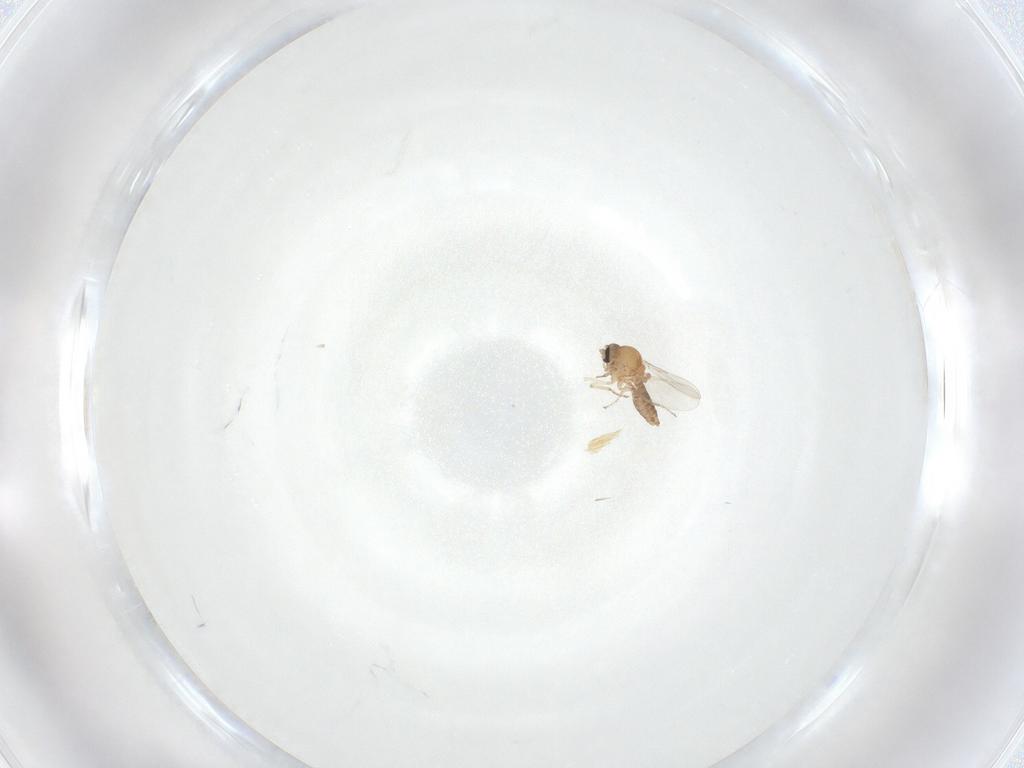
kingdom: Animalia
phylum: Arthropoda
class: Insecta
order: Diptera
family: Ceratopogonidae
